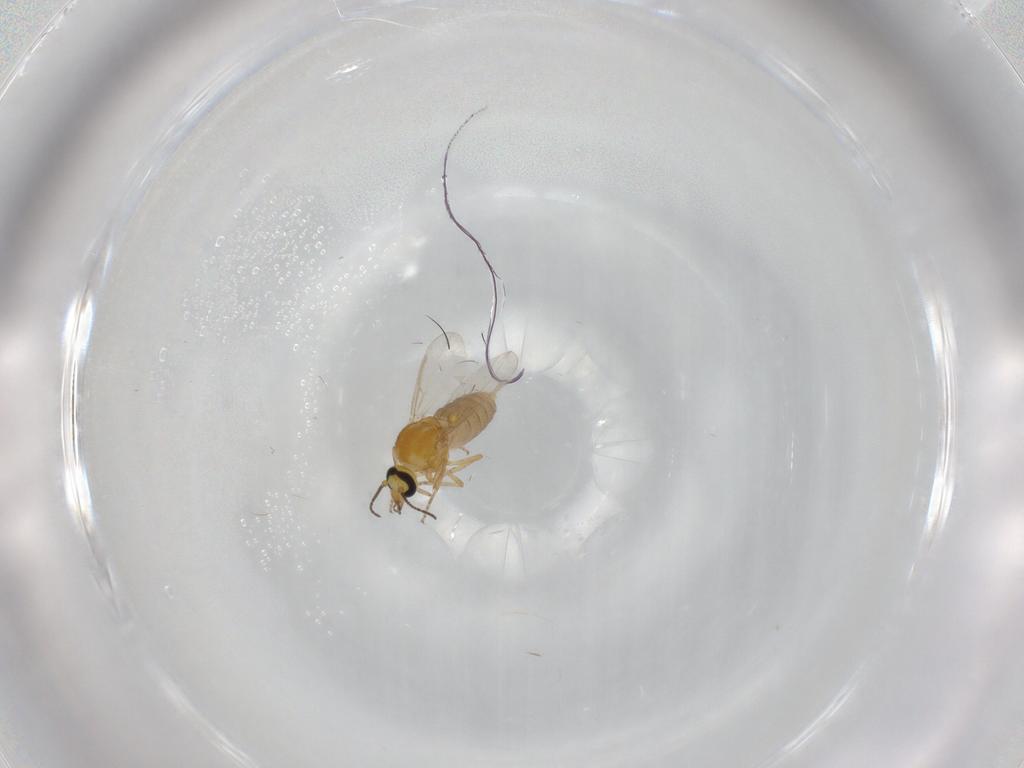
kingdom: Animalia
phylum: Arthropoda
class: Insecta
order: Diptera
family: Ceratopogonidae
